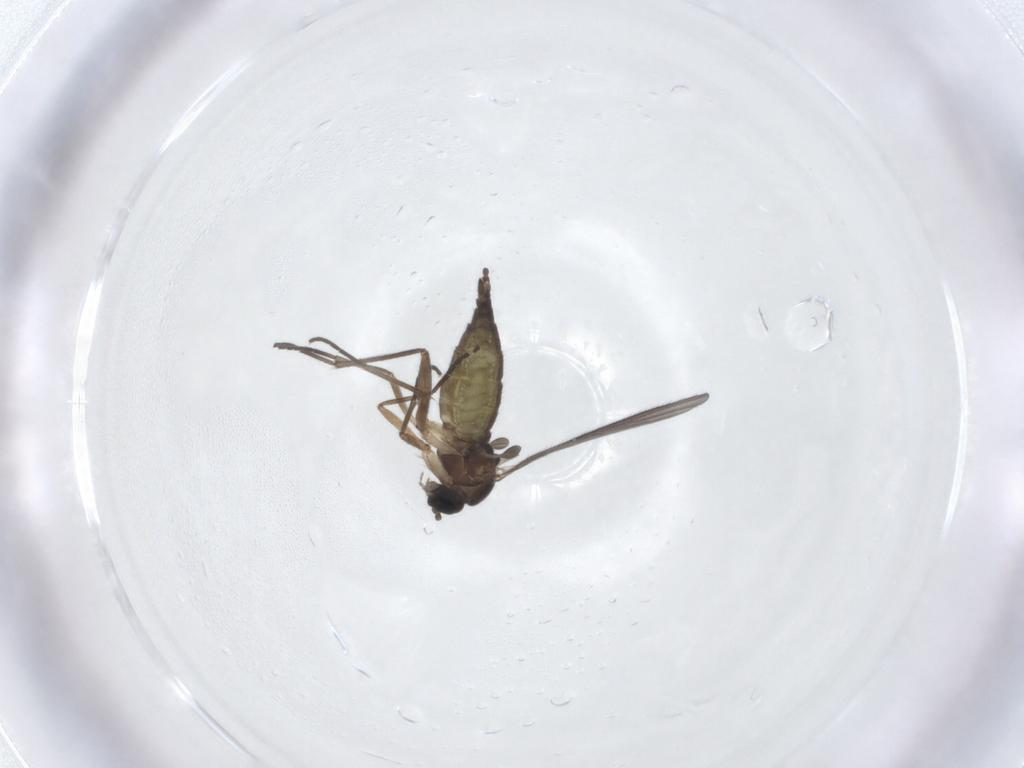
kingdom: Animalia
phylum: Arthropoda
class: Insecta
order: Diptera
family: Sciaridae
